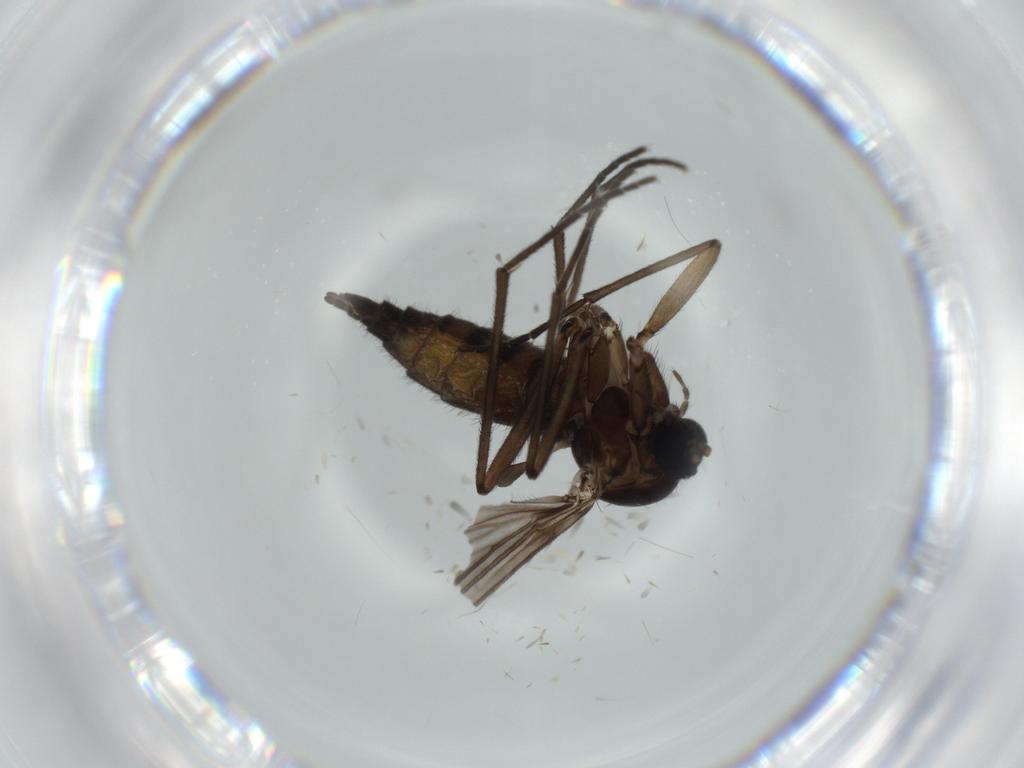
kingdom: Animalia
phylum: Arthropoda
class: Insecta
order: Diptera
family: Sciaridae
